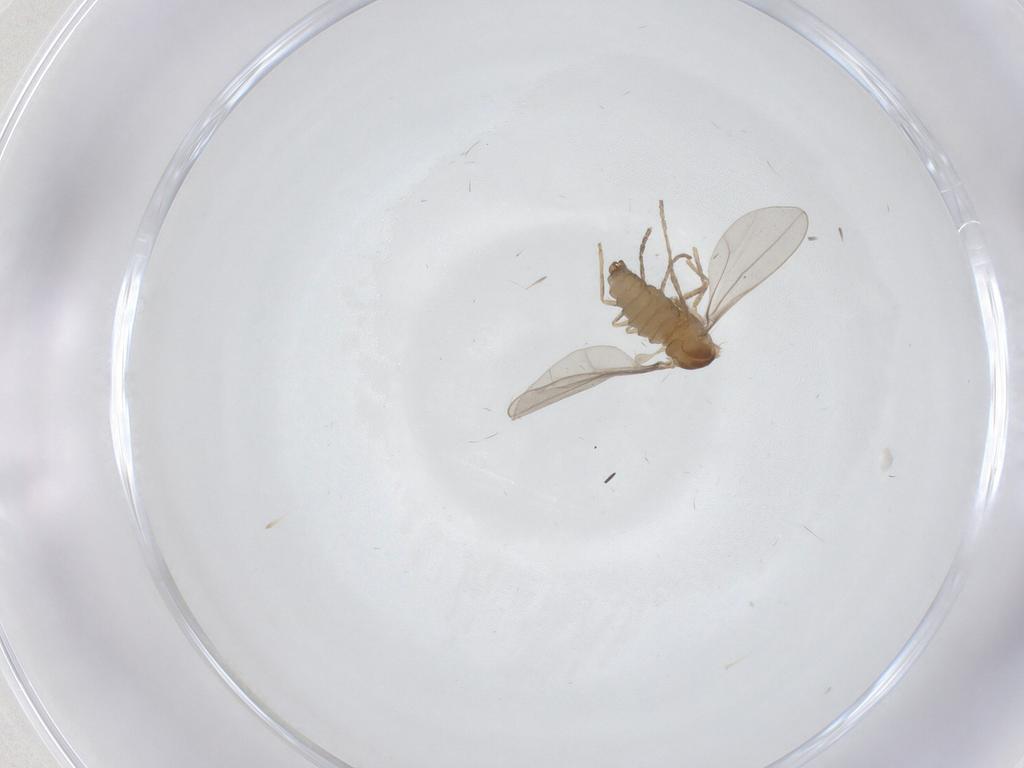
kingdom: Animalia
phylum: Arthropoda
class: Insecta
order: Diptera
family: Cecidomyiidae
